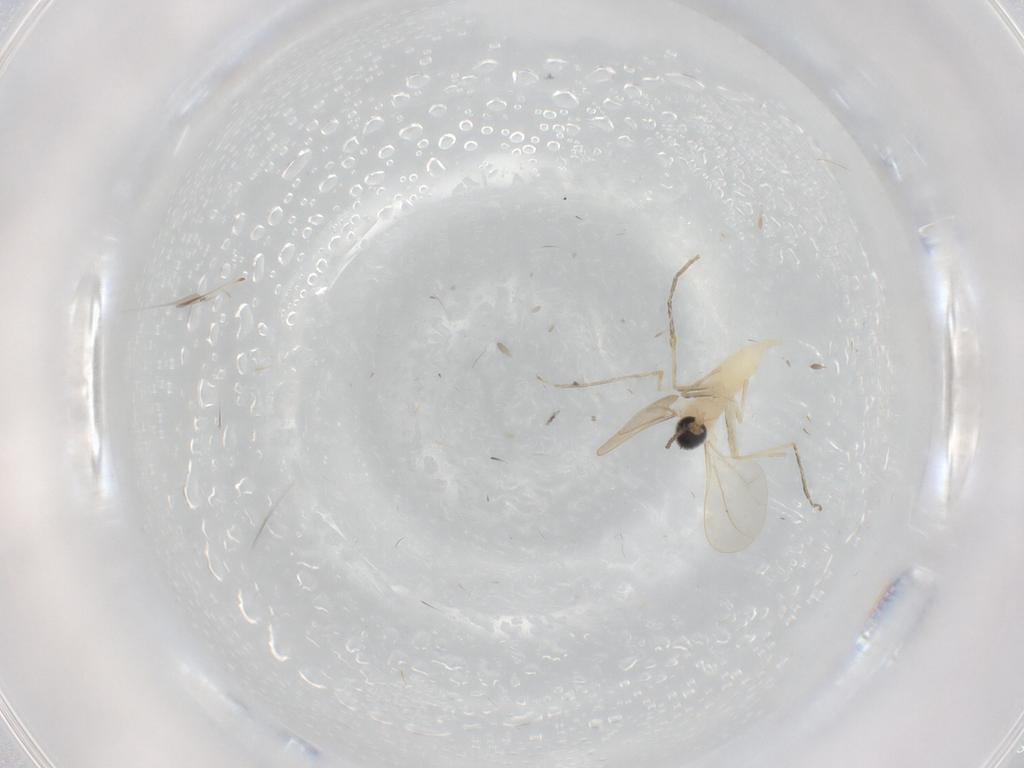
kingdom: Animalia
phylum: Arthropoda
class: Insecta
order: Diptera
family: Cecidomyiidae
